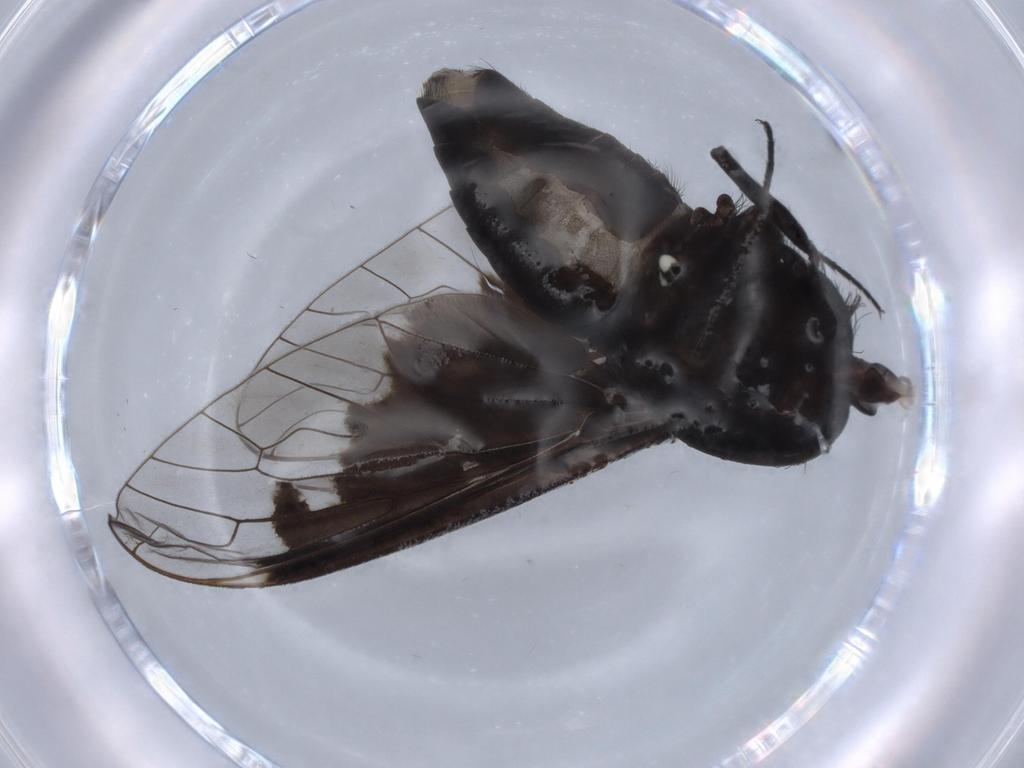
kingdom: Animalia
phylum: Arthropoda
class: Insecta
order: Diptera
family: Bombyliidae
